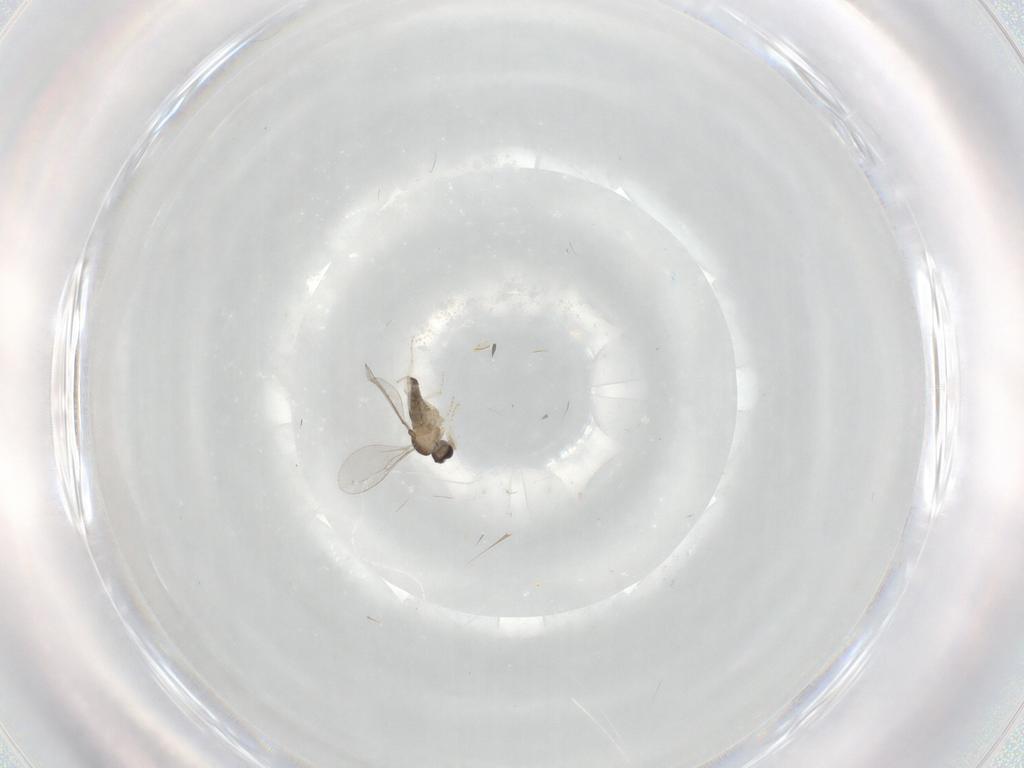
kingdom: Animalia
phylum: Arthropoda
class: Insecta
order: Diptera
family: Cecidomyiidae
